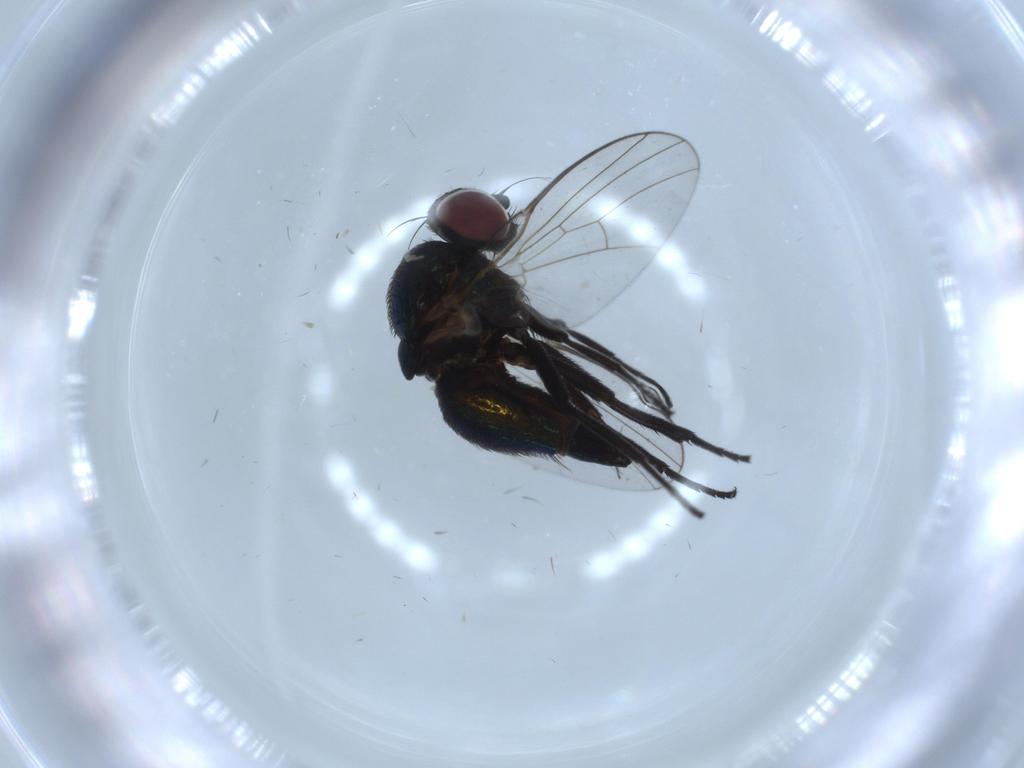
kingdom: Animalia
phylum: Arthropoda
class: Insecta
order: Diptera
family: Agromyzidae
